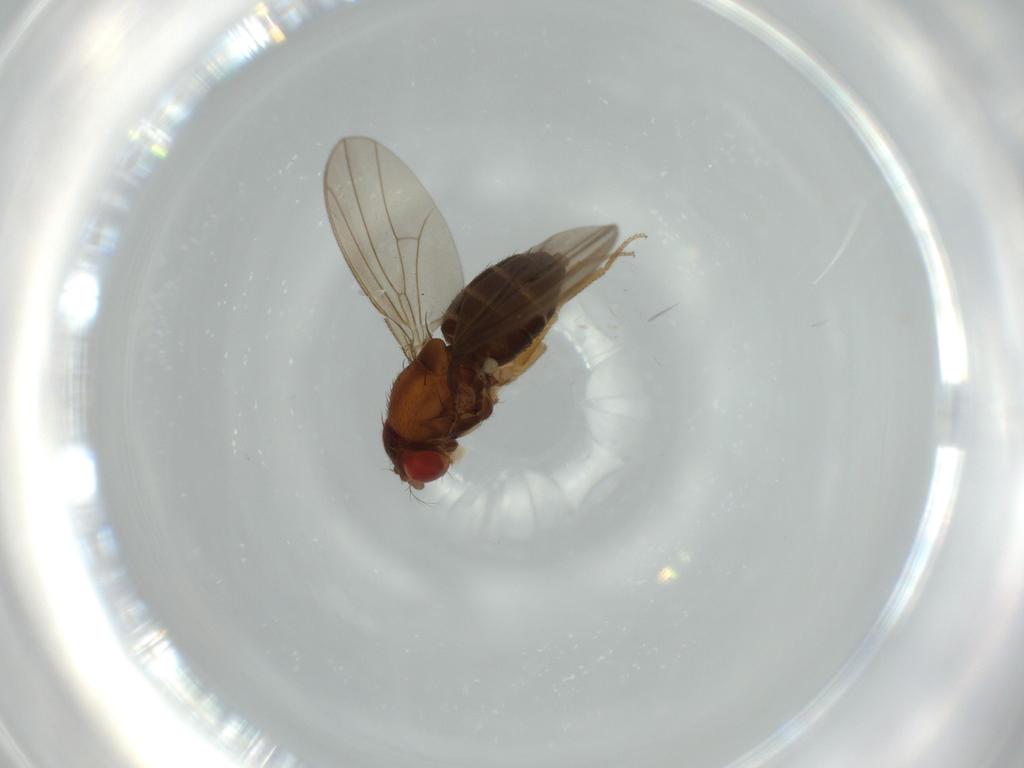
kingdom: Animalia
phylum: Arthropoda
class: Insecta
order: Diptera
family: Drosophilidae
